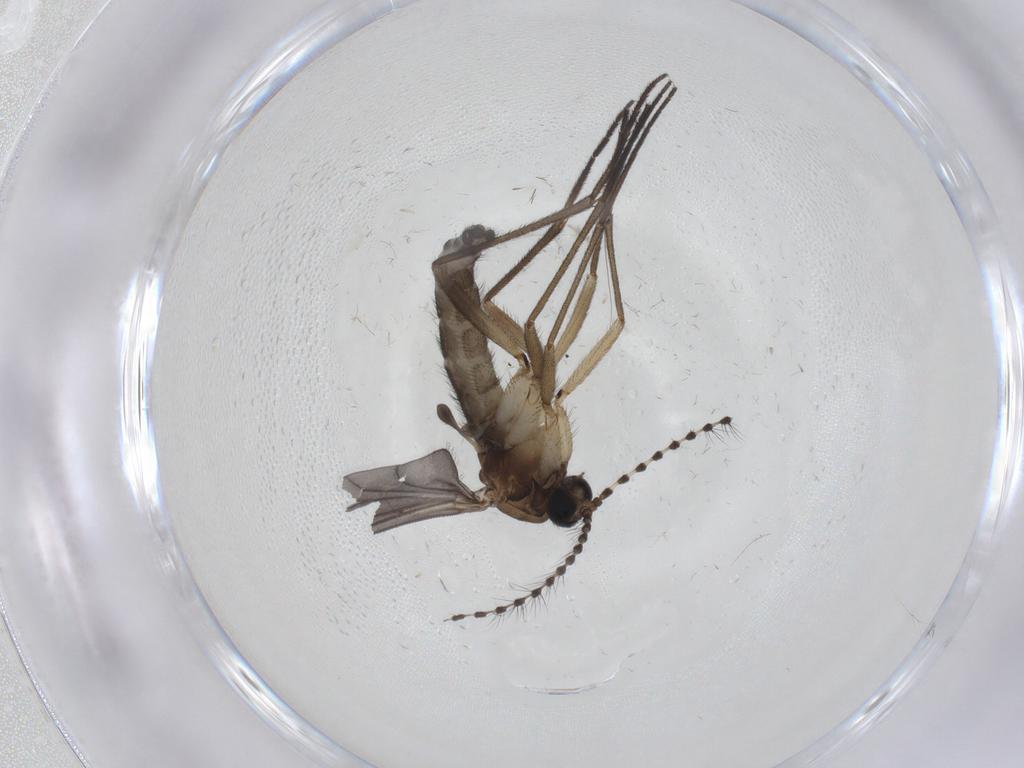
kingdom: Animalia
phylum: Arthropoda
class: Insecta
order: Diptera
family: Sciaridae
